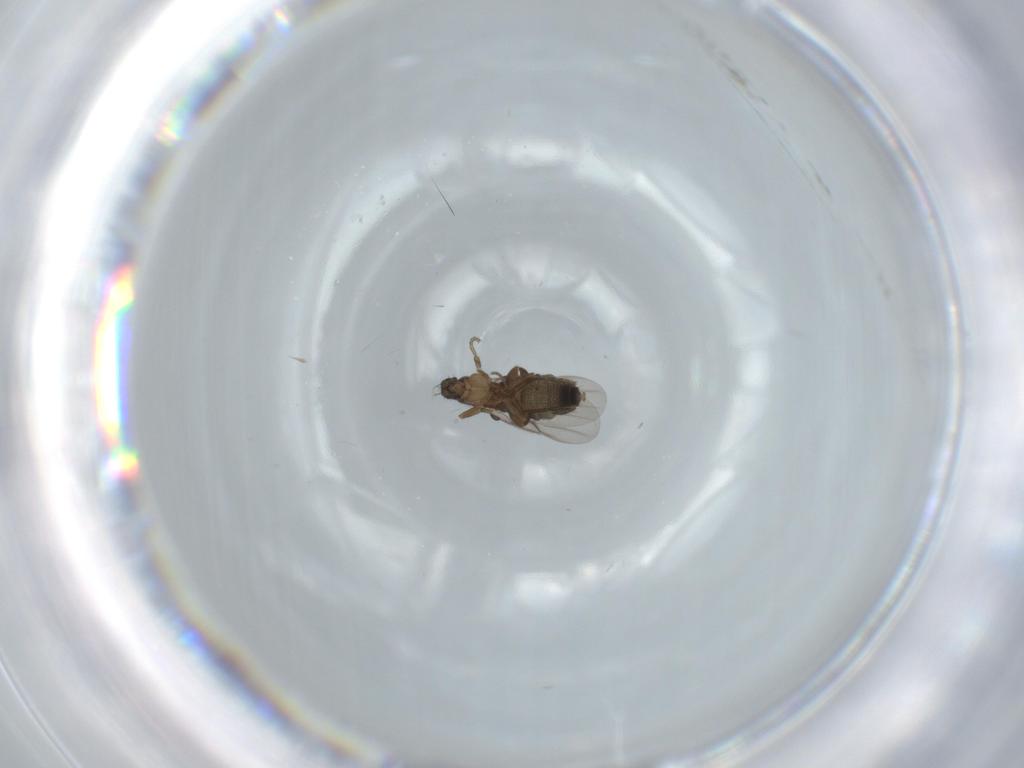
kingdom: Animalia
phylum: Arthropoda
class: Insecta
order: Diptera
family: Phoridae
